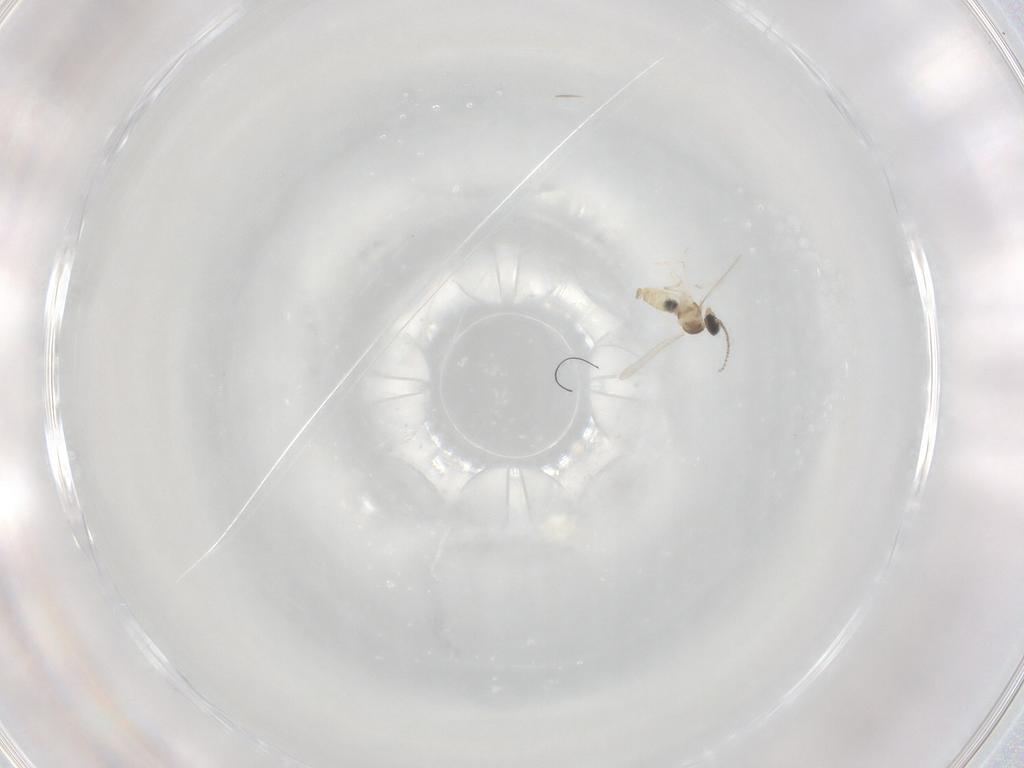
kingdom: Animalia
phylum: Arthropoda
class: Insecta
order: Diptera
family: Cecidomyiidae
